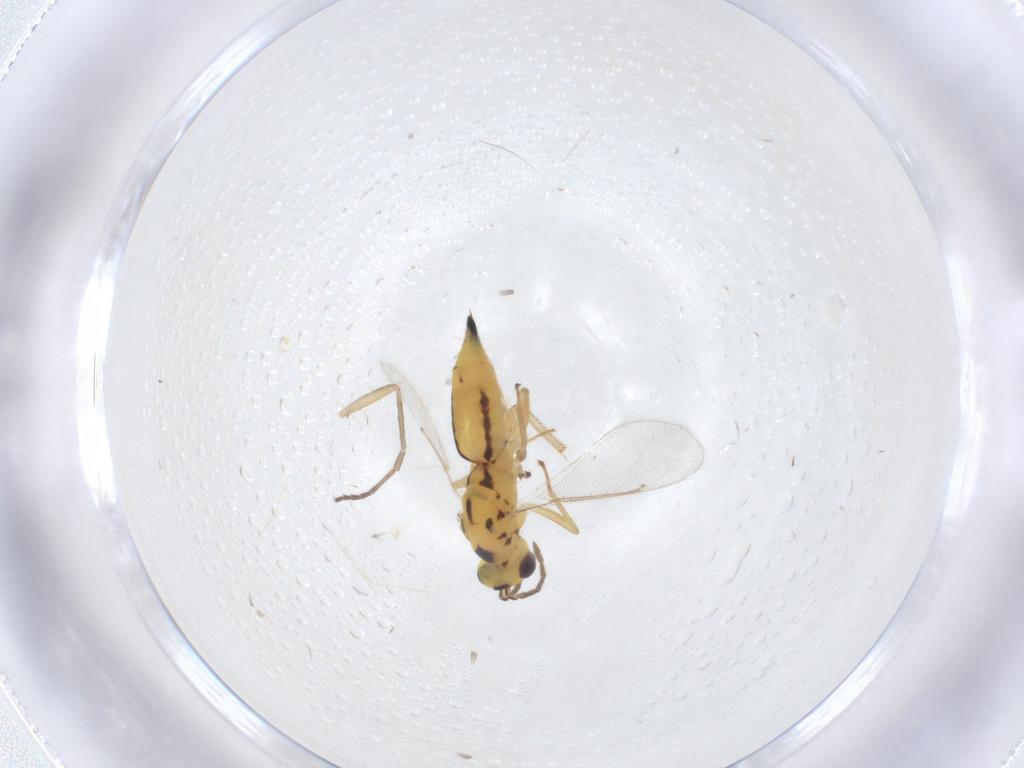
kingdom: Animalia
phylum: Arthropoda
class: Insecta
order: Hymenoptera
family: Eulophidae
